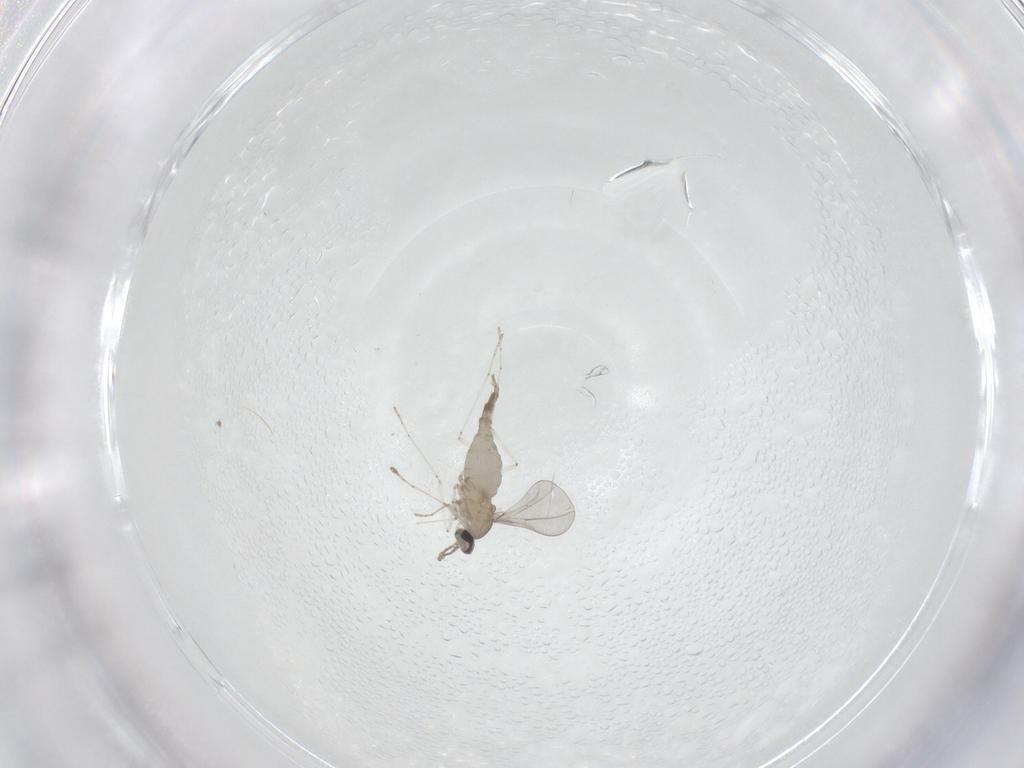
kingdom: Animalia
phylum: Arthropoda
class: Insecta
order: Diptera
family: Cecidomyiidae
